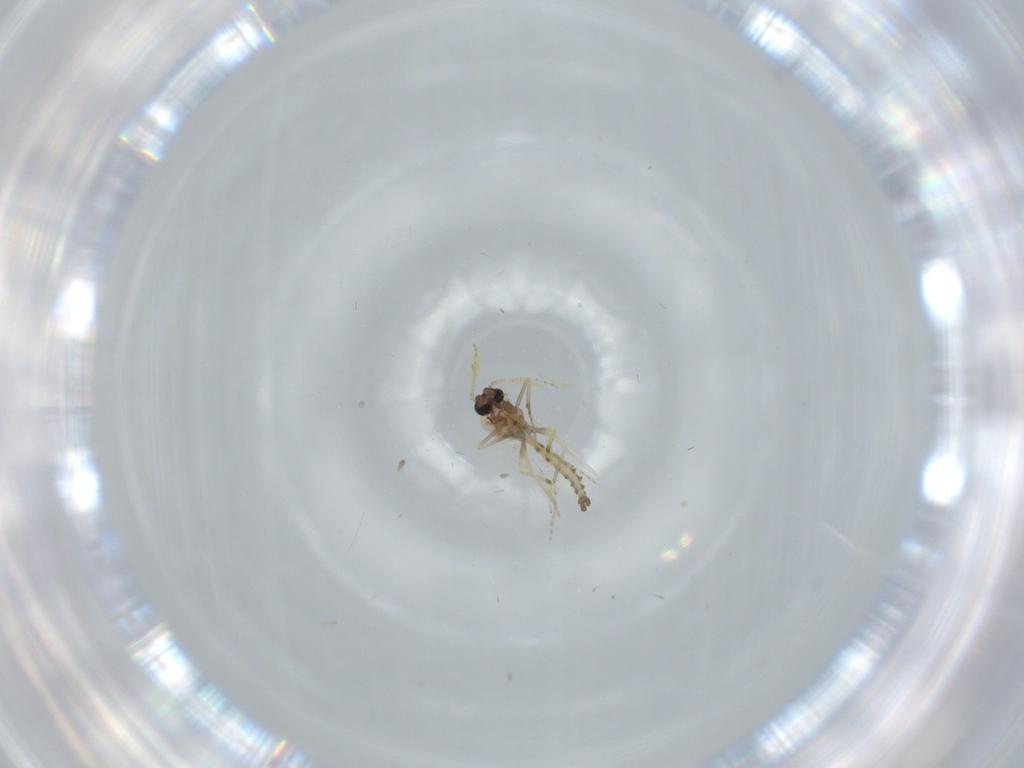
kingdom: Animalia
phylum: Arthropoda
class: Insecta
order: Diptera
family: Ceratopogonidae
